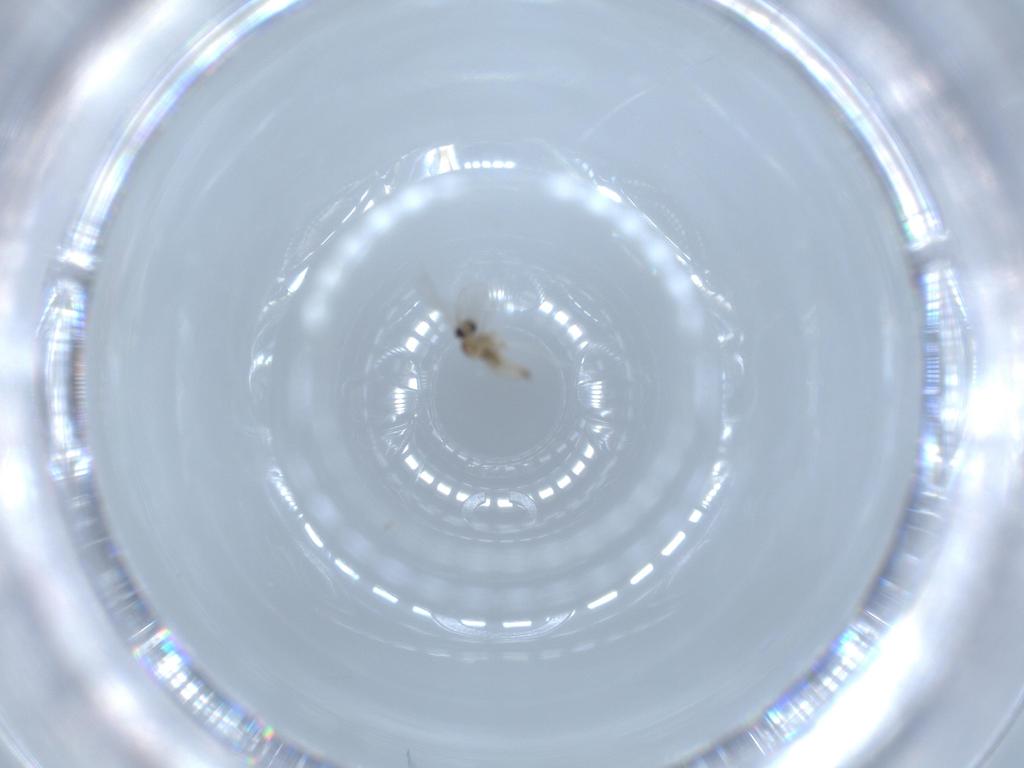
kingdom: Animalia
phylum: Arthropoda
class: Insecta
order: Diptera
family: Cecidomyiidae
